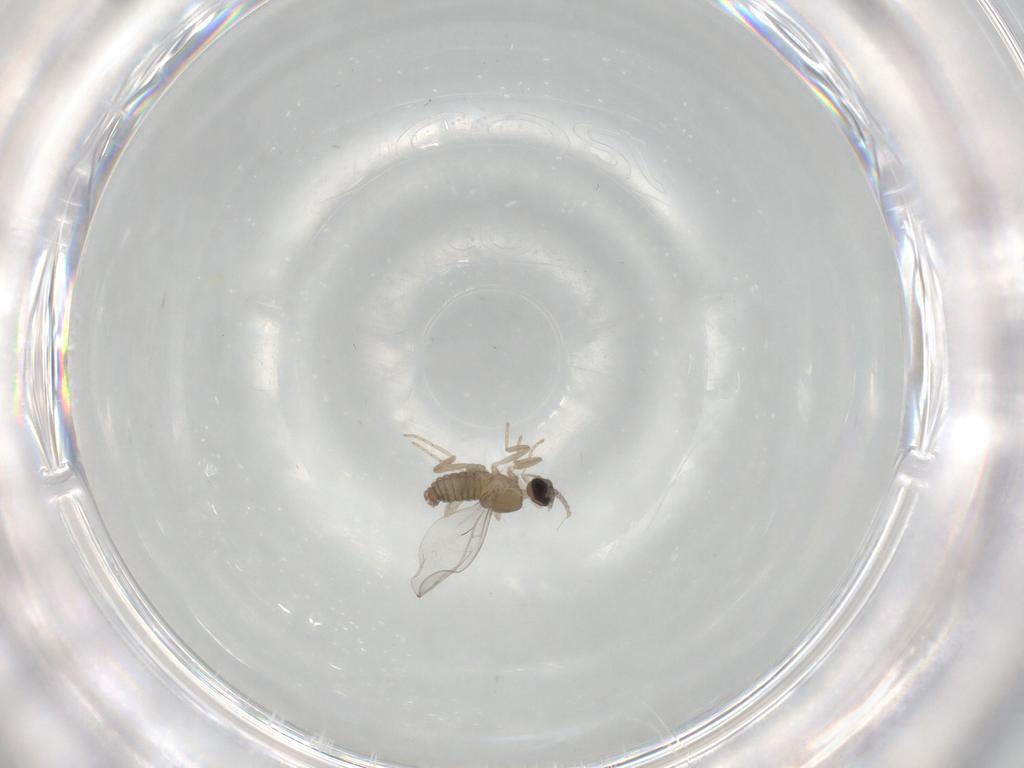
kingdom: Animalia
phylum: Arthropoda
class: Insecta
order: Diptera
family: Cecidomyiidae
